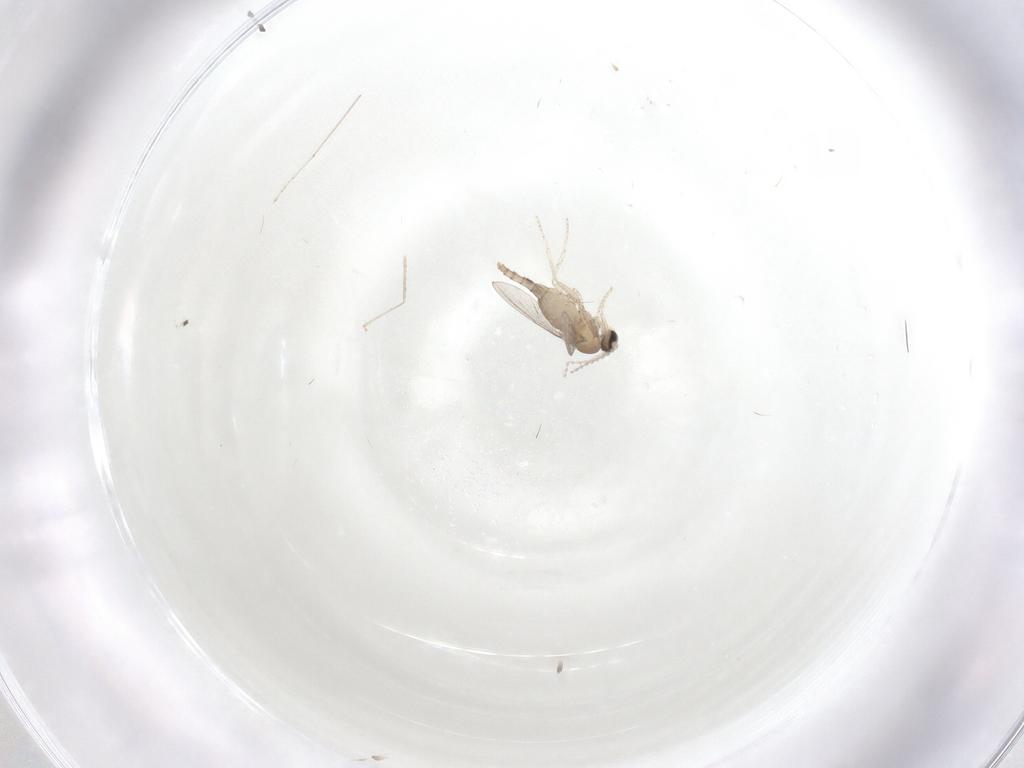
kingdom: Animalia
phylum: Arthropoda
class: Insecta
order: Diptera
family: Cecidomyiidae
